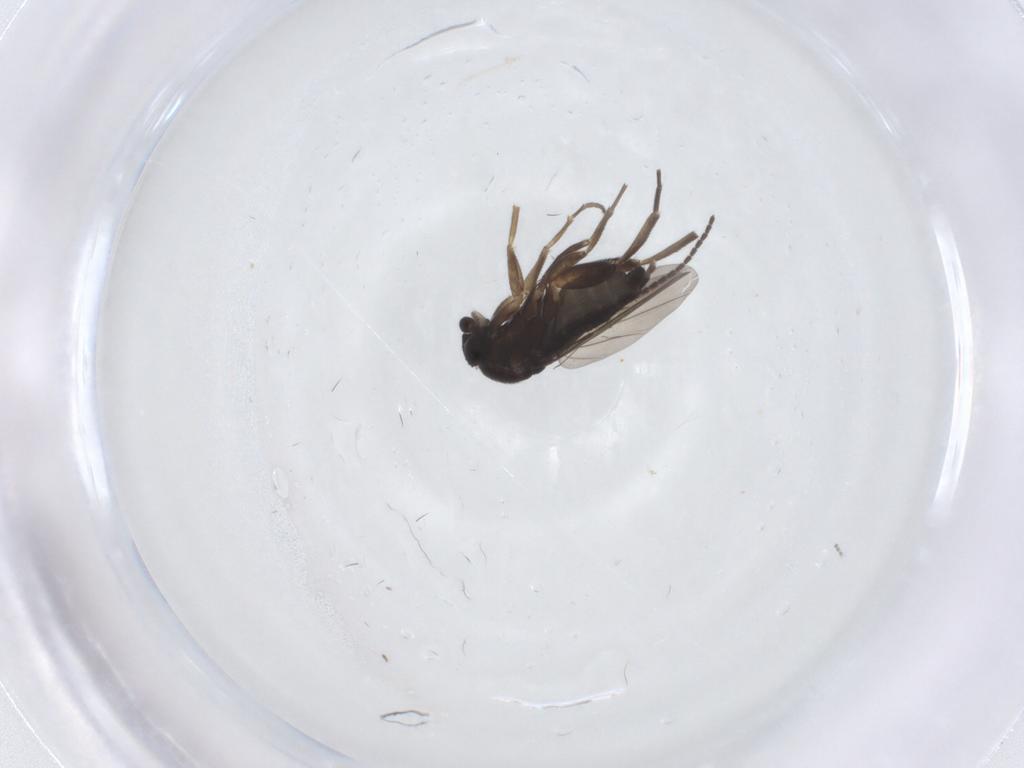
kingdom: Animalia
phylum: Arthropoda
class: Insecta
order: Diptera
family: Phoridae
